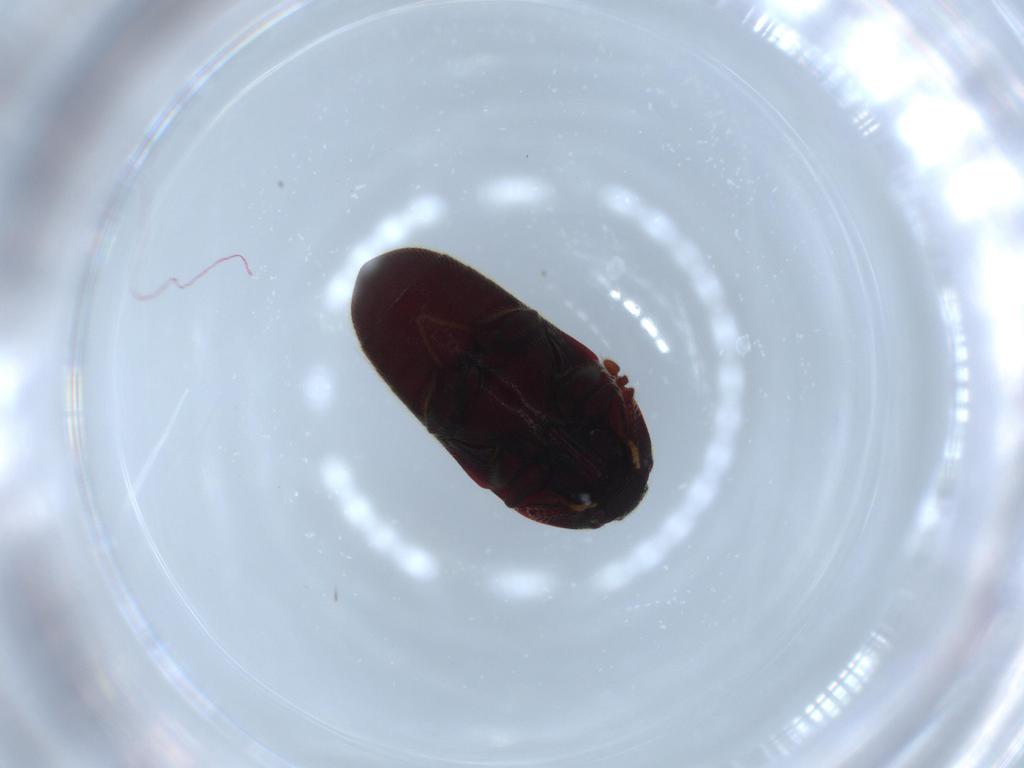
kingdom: Animalia
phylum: Arthropoda
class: Insecta
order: Coleoptera
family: Throscidae
